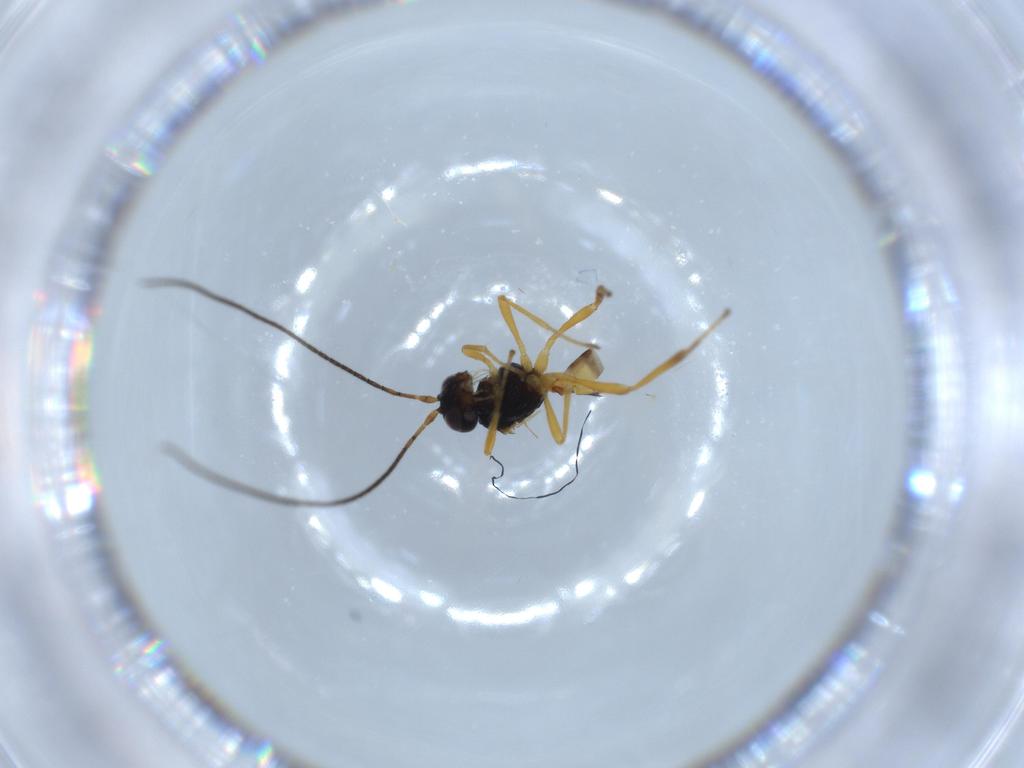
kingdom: Animalia
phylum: Arthropoda
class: Insecta
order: Hymenoptera
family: Braconidae
